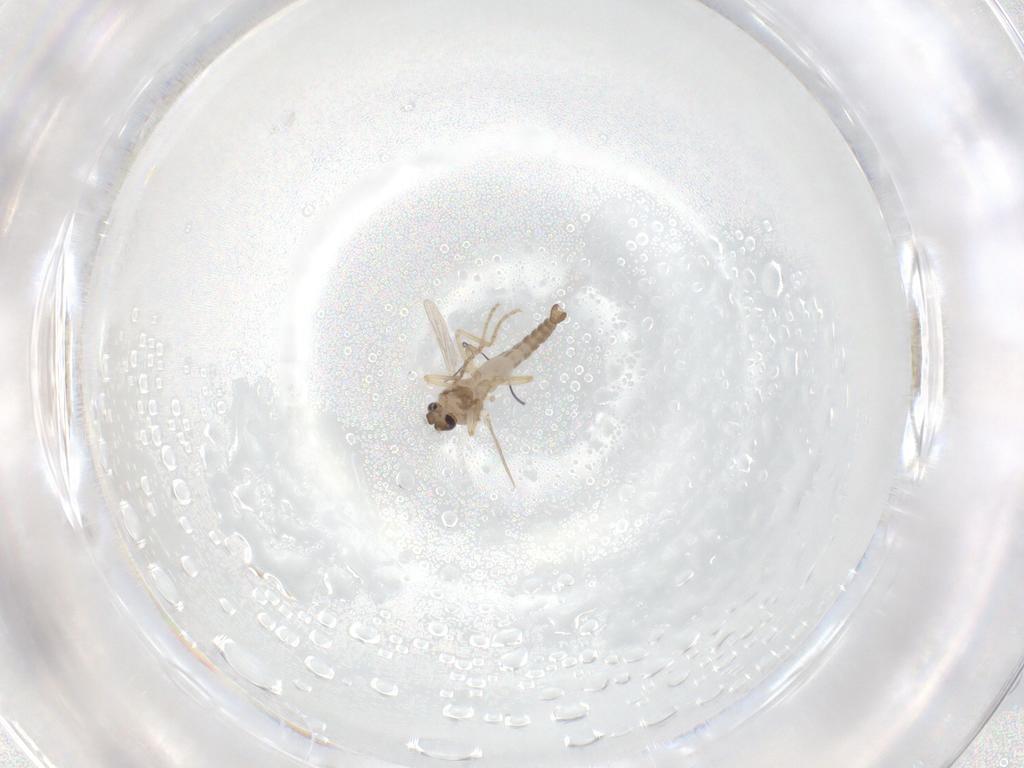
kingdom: Animalia
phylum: Arthropoda
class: Insecta
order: Diptera
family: Ceratopogonidae
